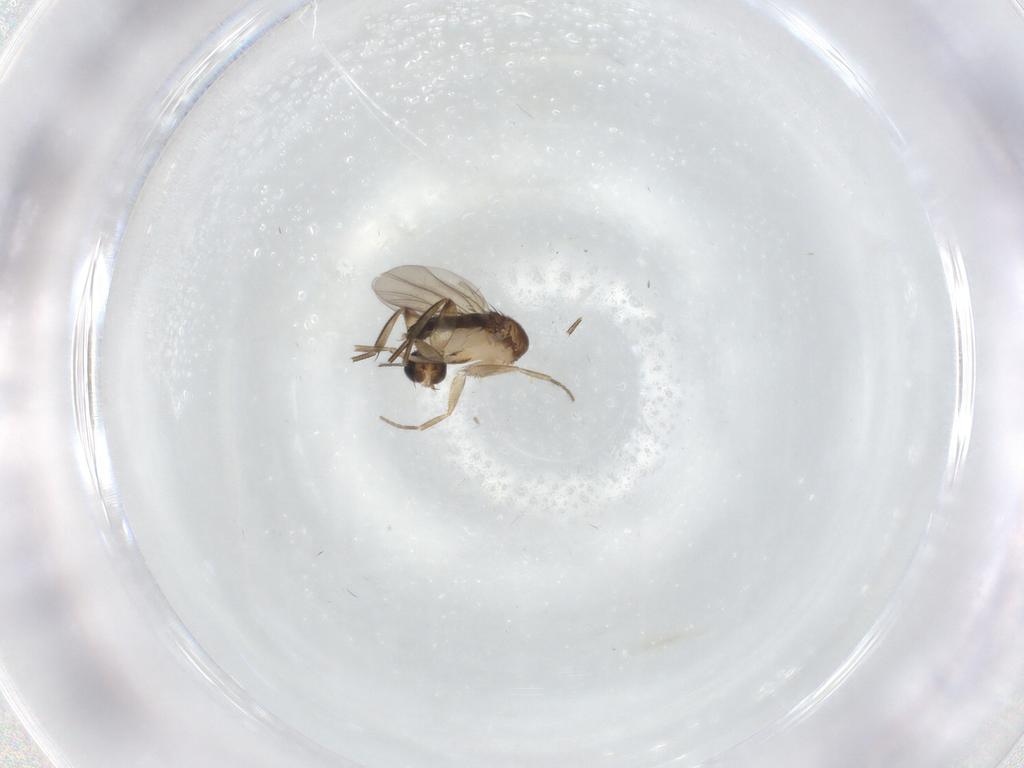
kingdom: Animalia
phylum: Arthropoda
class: Insecta
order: Diptera
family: Phoridae
